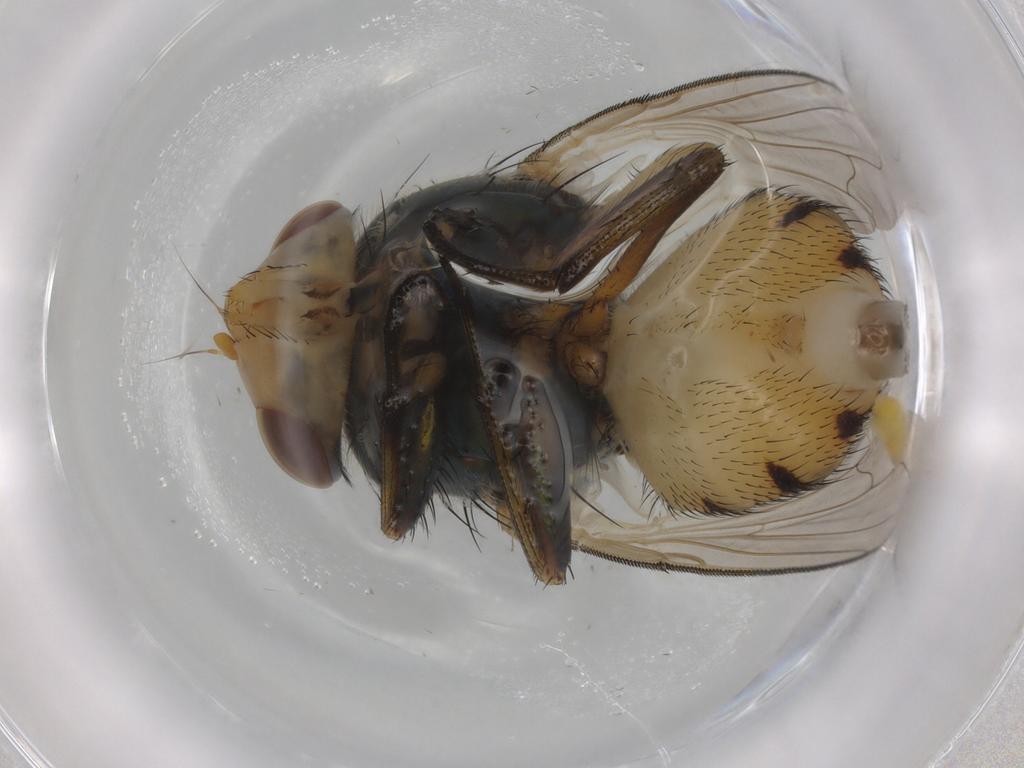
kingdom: Animalia
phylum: Arthropoda
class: Insecta
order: Diptera
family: Calliphoridae
